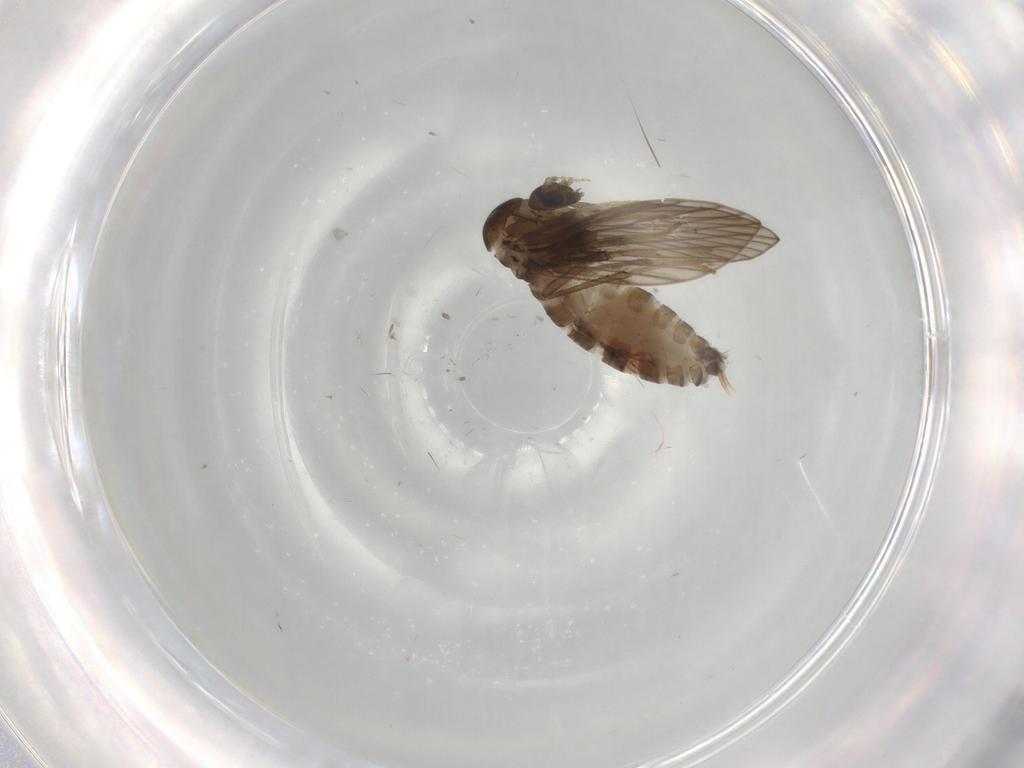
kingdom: Animalia
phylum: Arthropoda
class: Insecta
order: Diptera
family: Psychodidae
